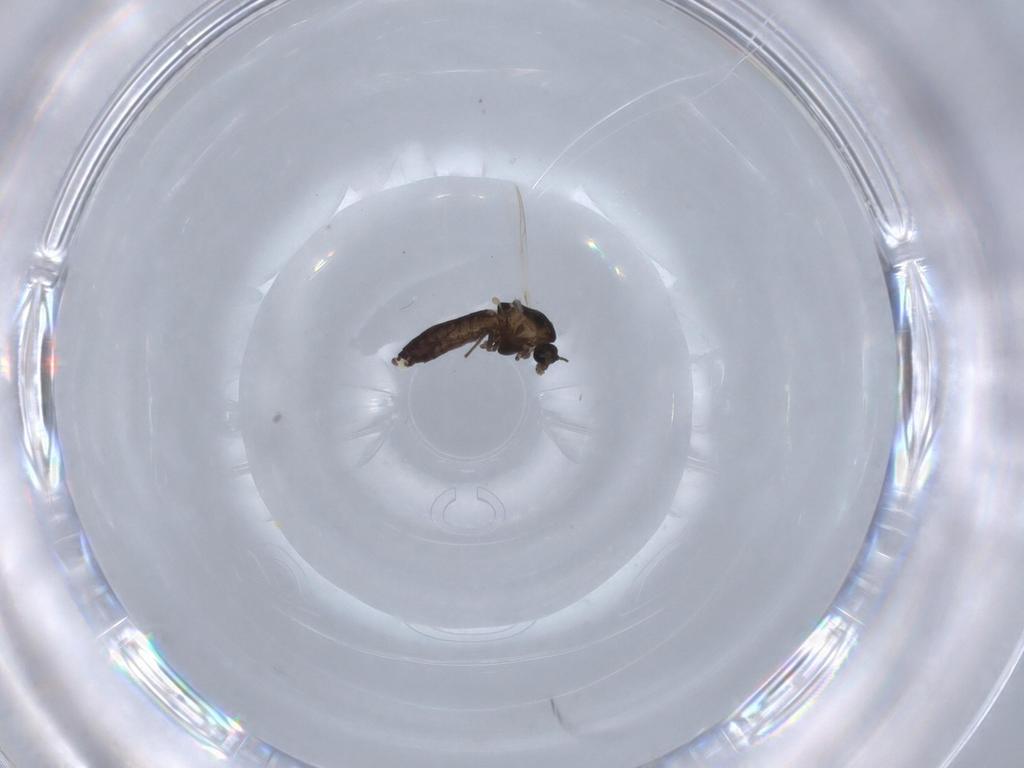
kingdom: Animalia
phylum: Arthropoda
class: Insecta
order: Diptera
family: Chironomidae
